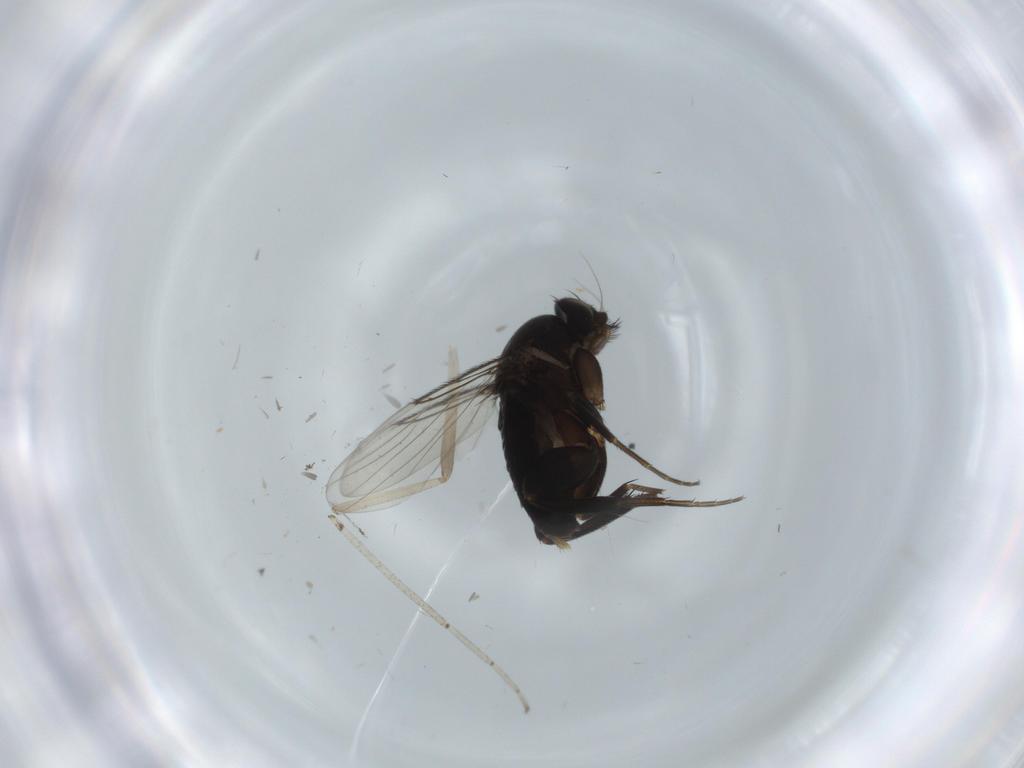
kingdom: Animalia
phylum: Arthropoda
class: Insecta
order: Diptera
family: Phoridae
